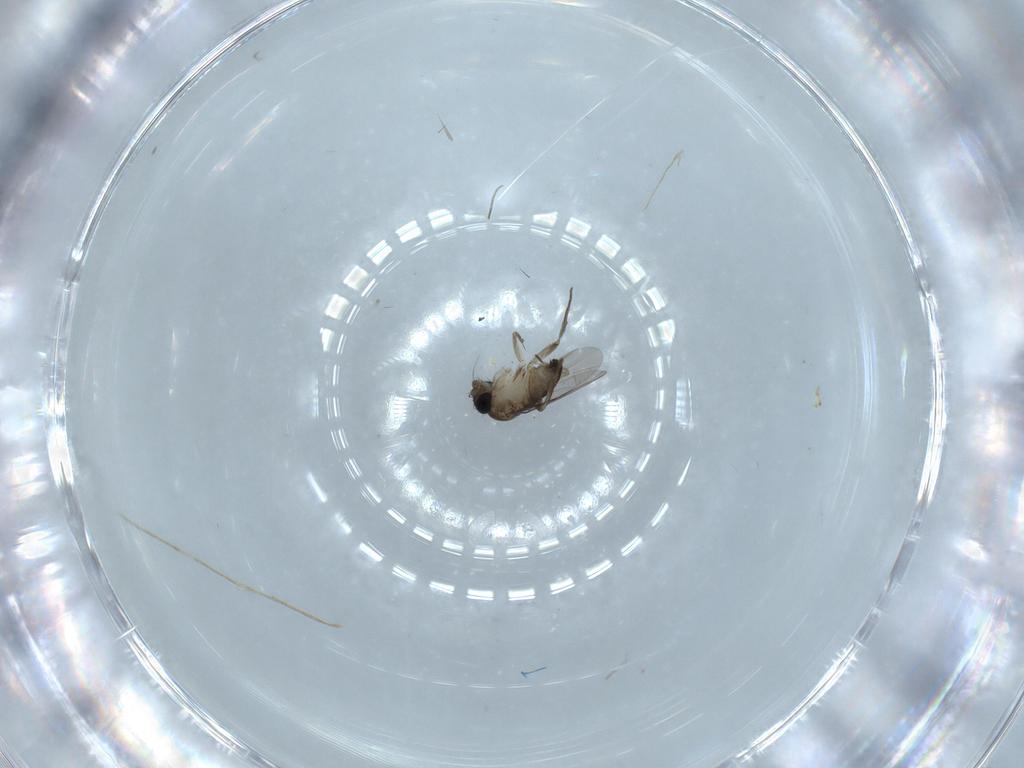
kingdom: Animalia
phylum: Arthropoda
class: Insecta
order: Diptera
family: Phoridae
